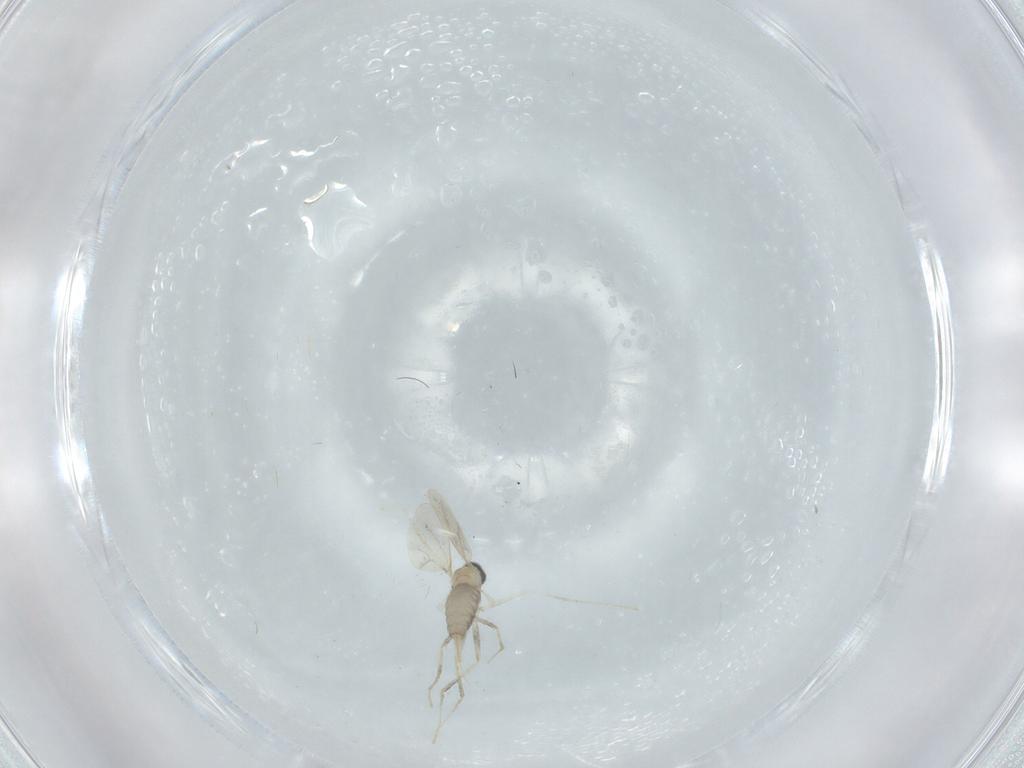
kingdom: Animalia
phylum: Arthropoda
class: Insecta
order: Diptera
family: Cecidomyiidae
